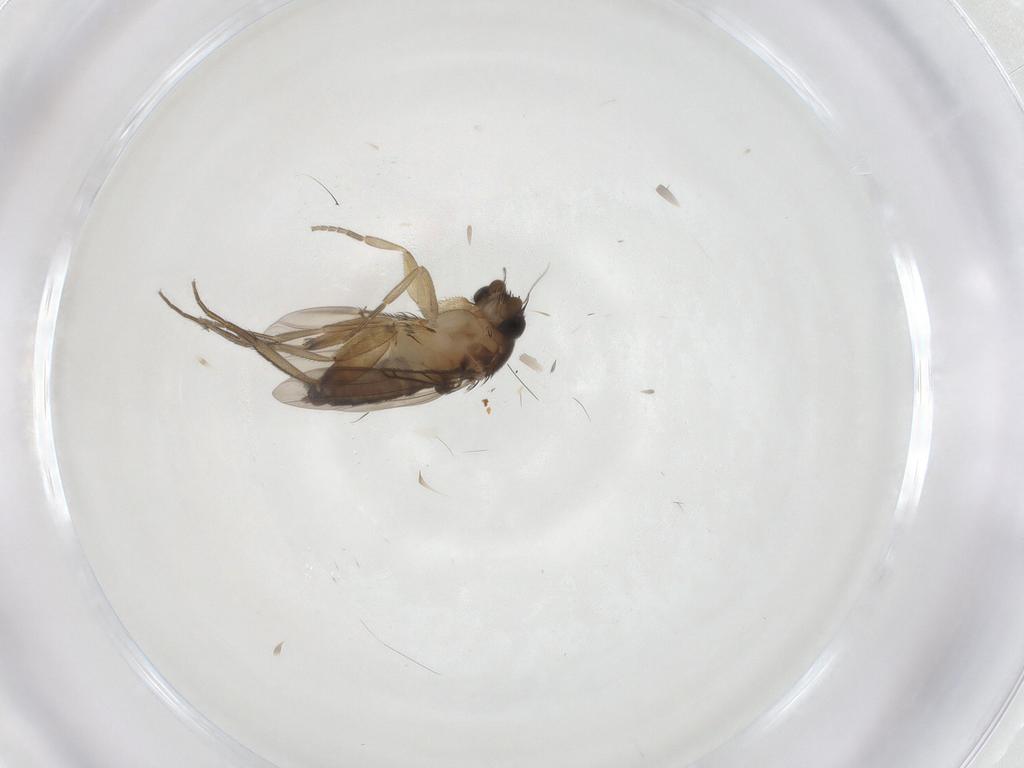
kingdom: Animalia
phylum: Arthropoda
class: Insecta
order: Diptera
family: Phoridae
